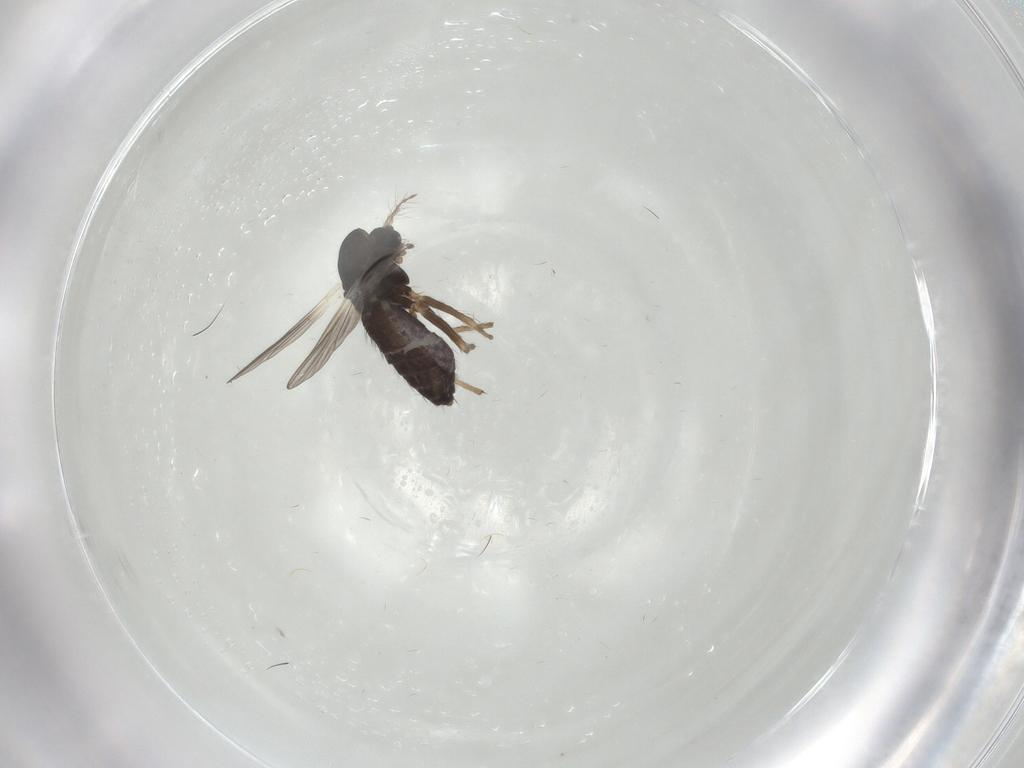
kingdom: Animalia
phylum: Arthropoda
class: Insecta
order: Diptera
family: Chironomidae
